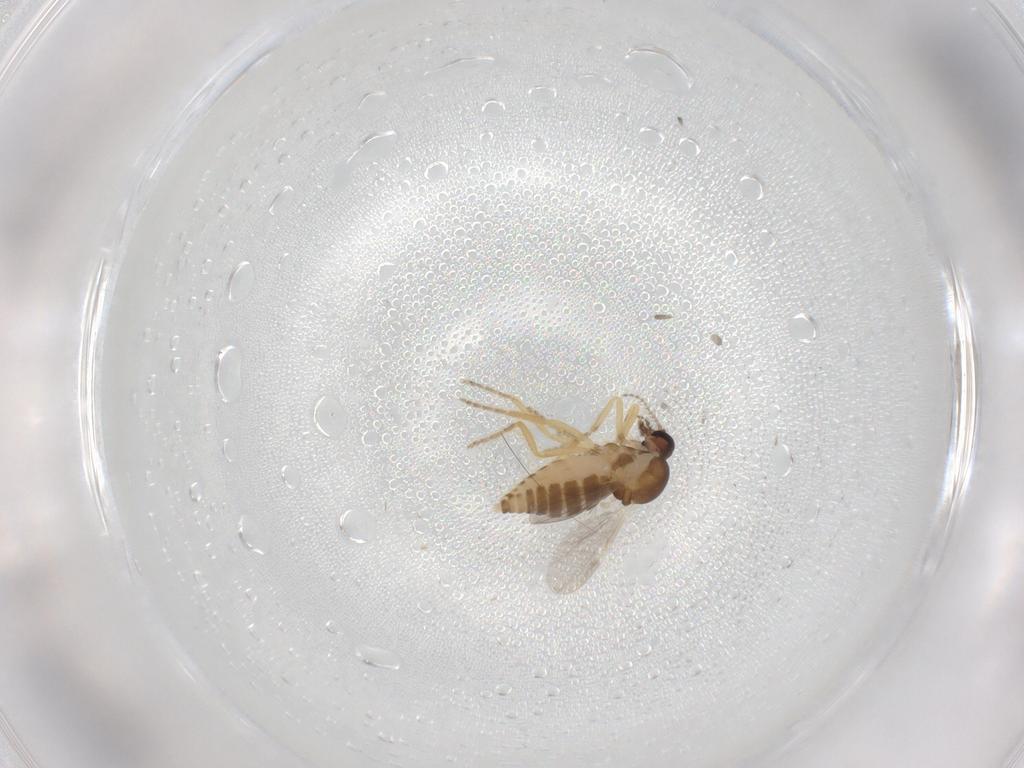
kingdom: Animalia
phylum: Arthropoda
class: Insecta
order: Diptera
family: Ceratopogonidae
